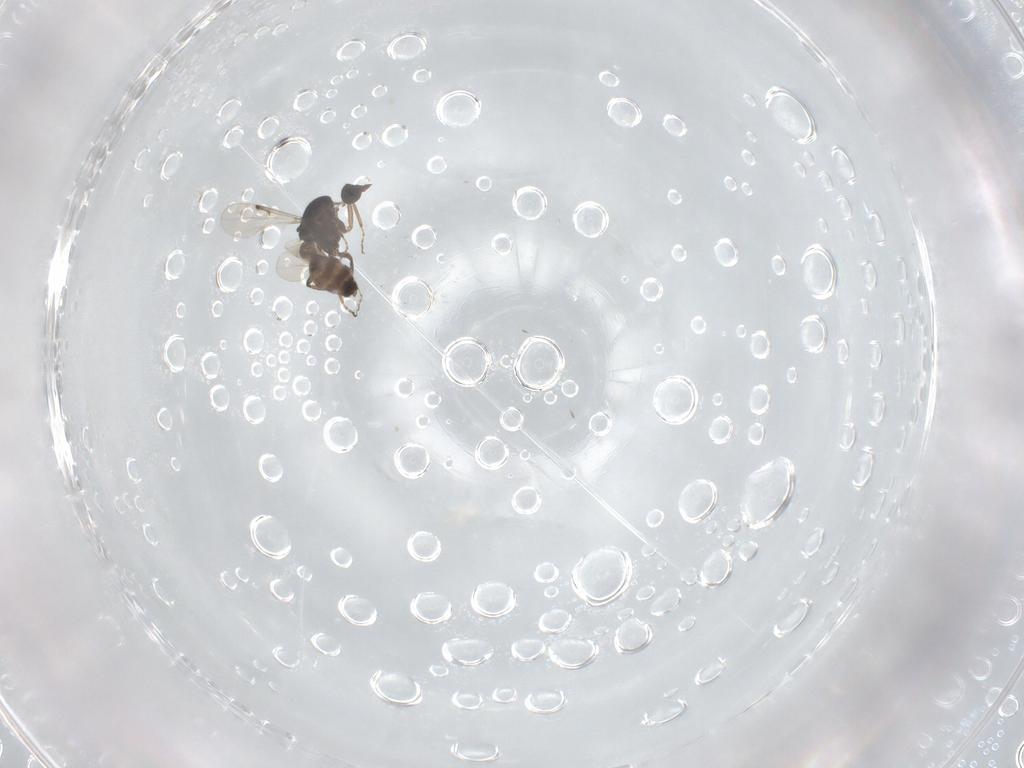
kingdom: Animalia
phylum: Arthropoda
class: Insecta
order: Diptera
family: Ceratopogonidae
